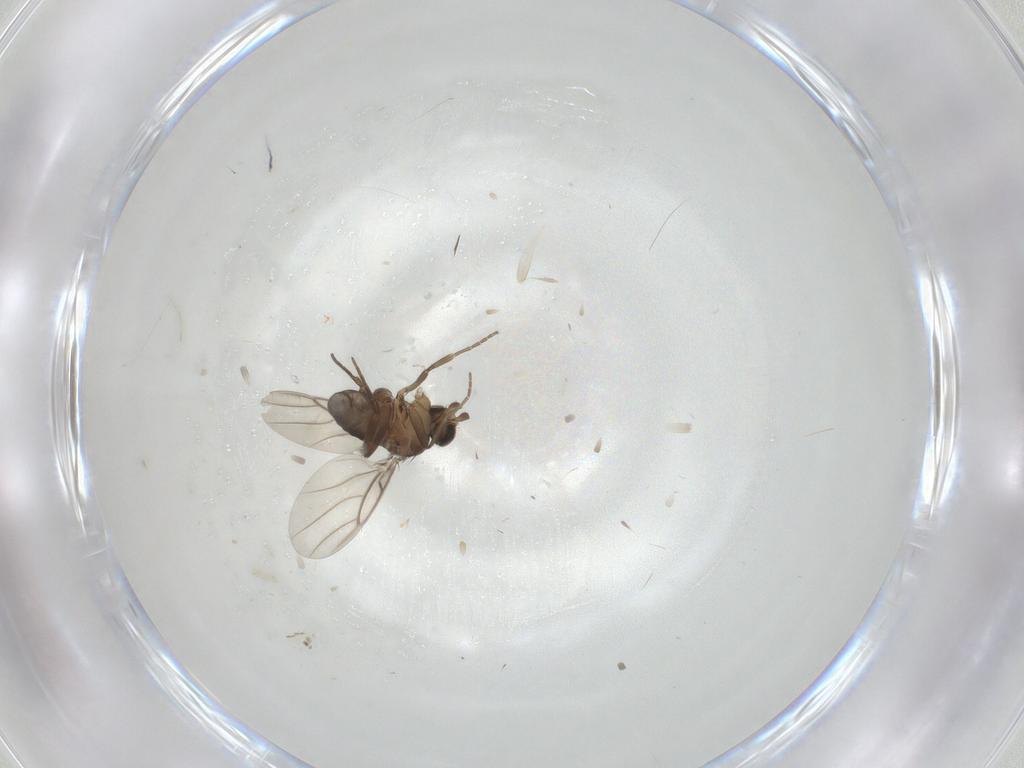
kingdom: Animalia
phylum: Arthropoda
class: Insecta
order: Diptera
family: Phoridae
